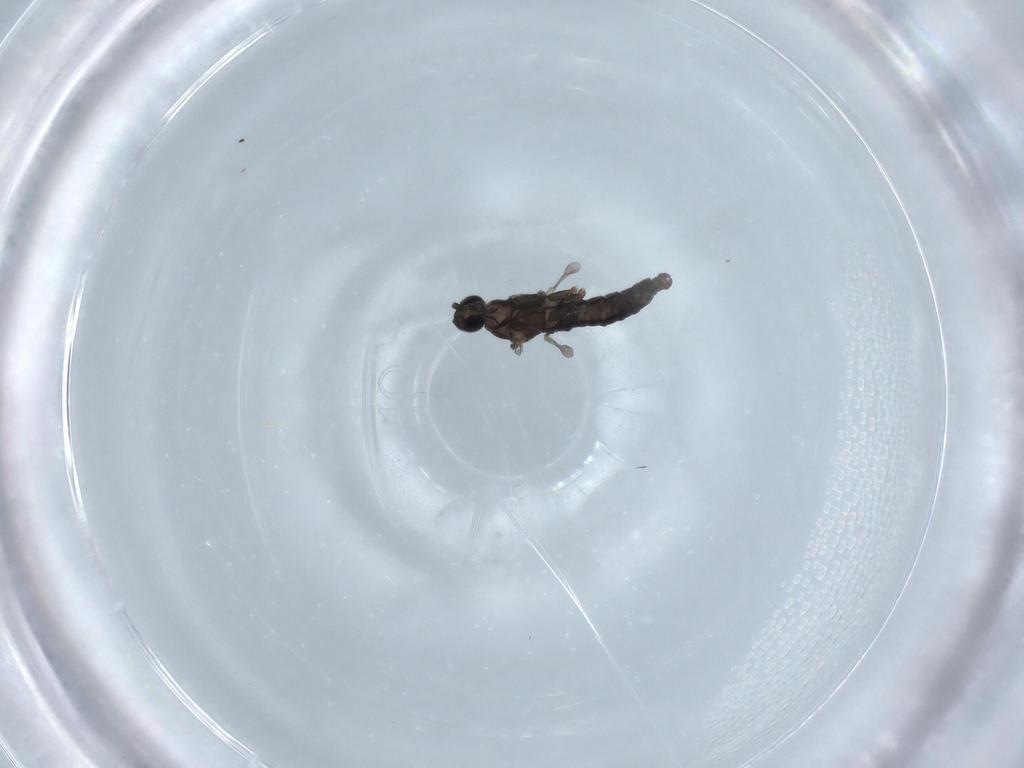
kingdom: Animalia
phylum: Arthropoda
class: Insecta
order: Diptera
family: Cecidomyiidae
